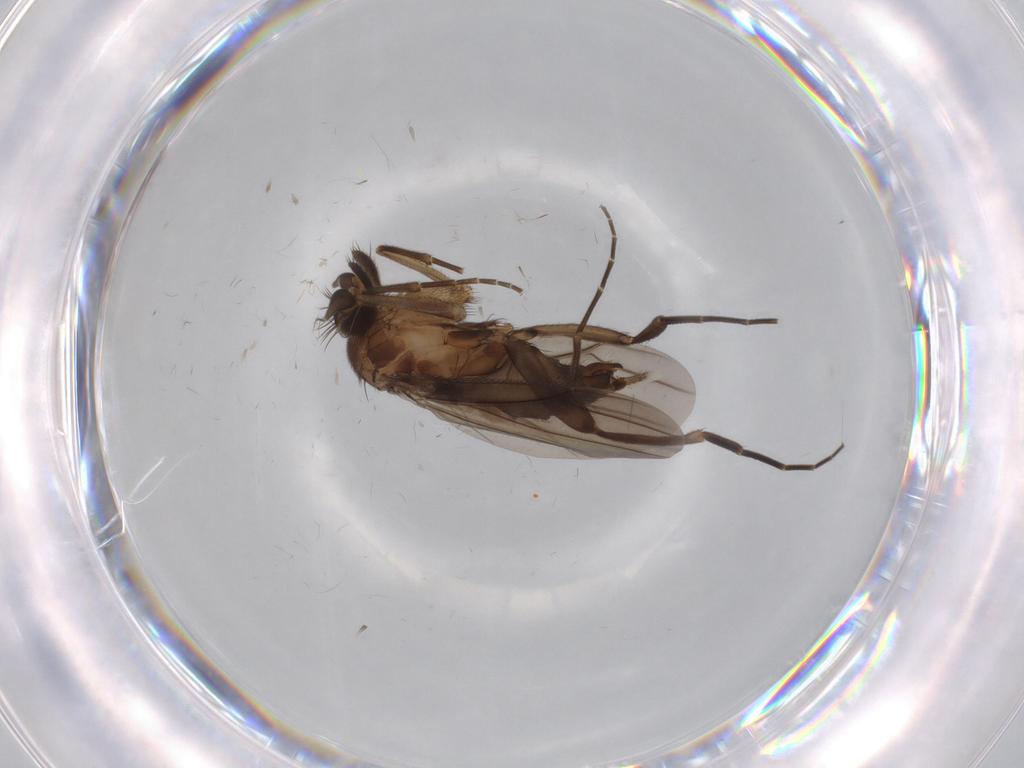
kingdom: Animalia
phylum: Arthropoda
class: Insecta
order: Diptera
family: Phoridae
